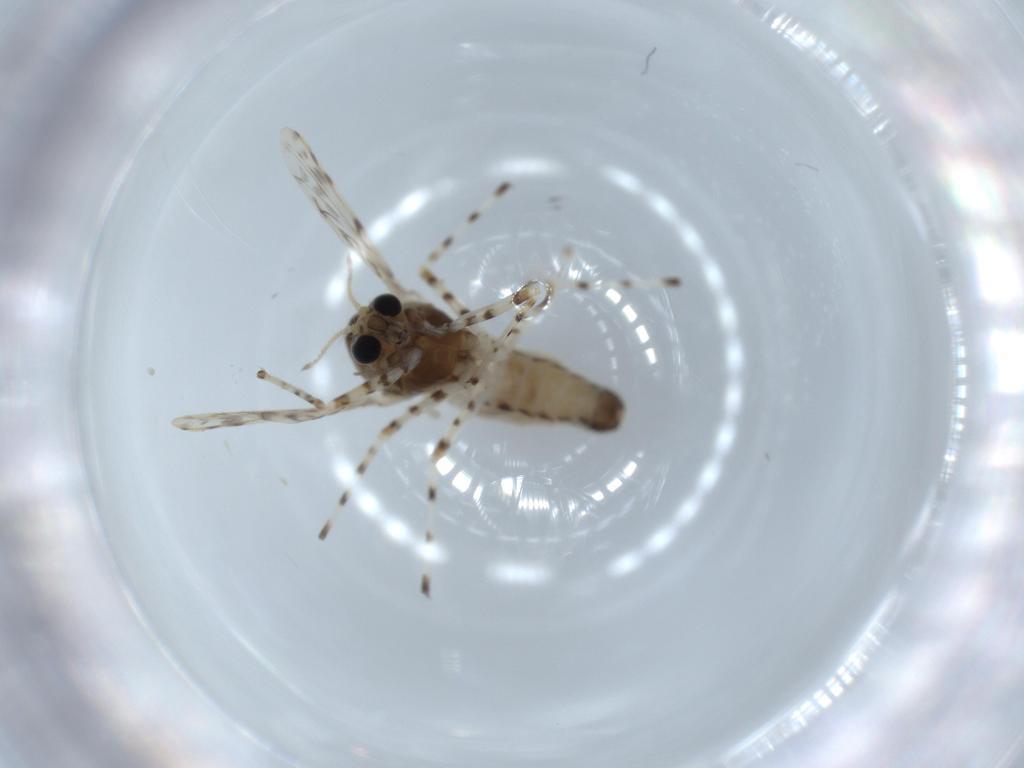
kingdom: Animalia
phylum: Arthropoda
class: Insecta
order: Diptera
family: Chironomidae
